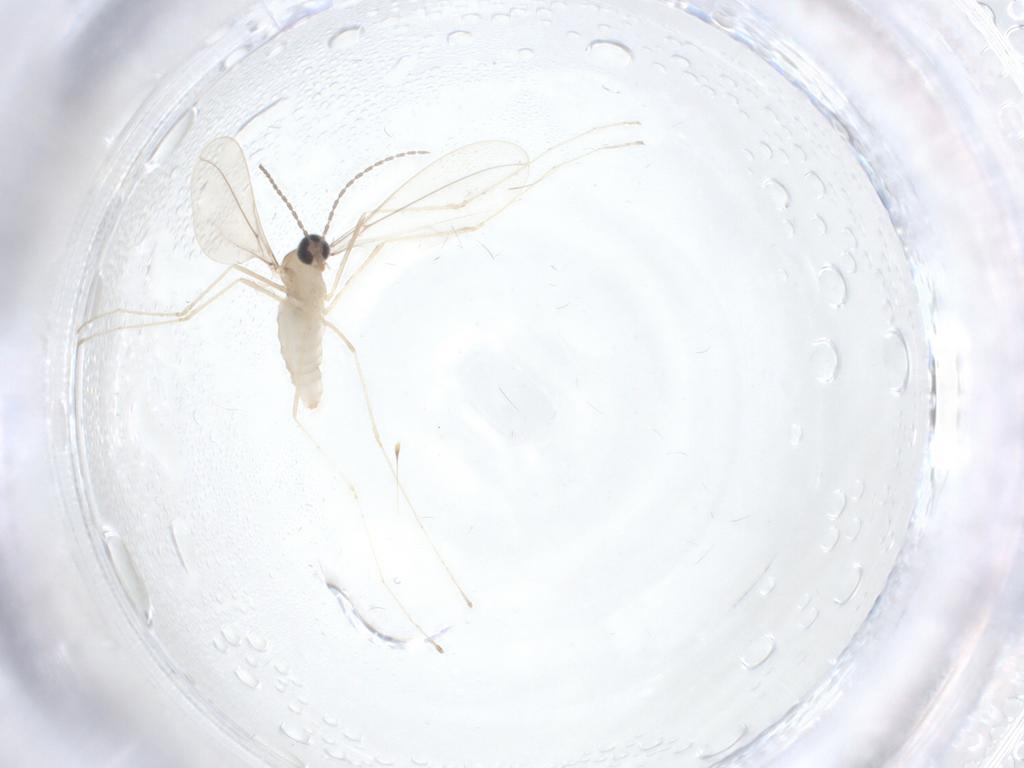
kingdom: Animalia
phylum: Arthropoda
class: Insecta
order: Diptera
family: Cecidomyiidae
